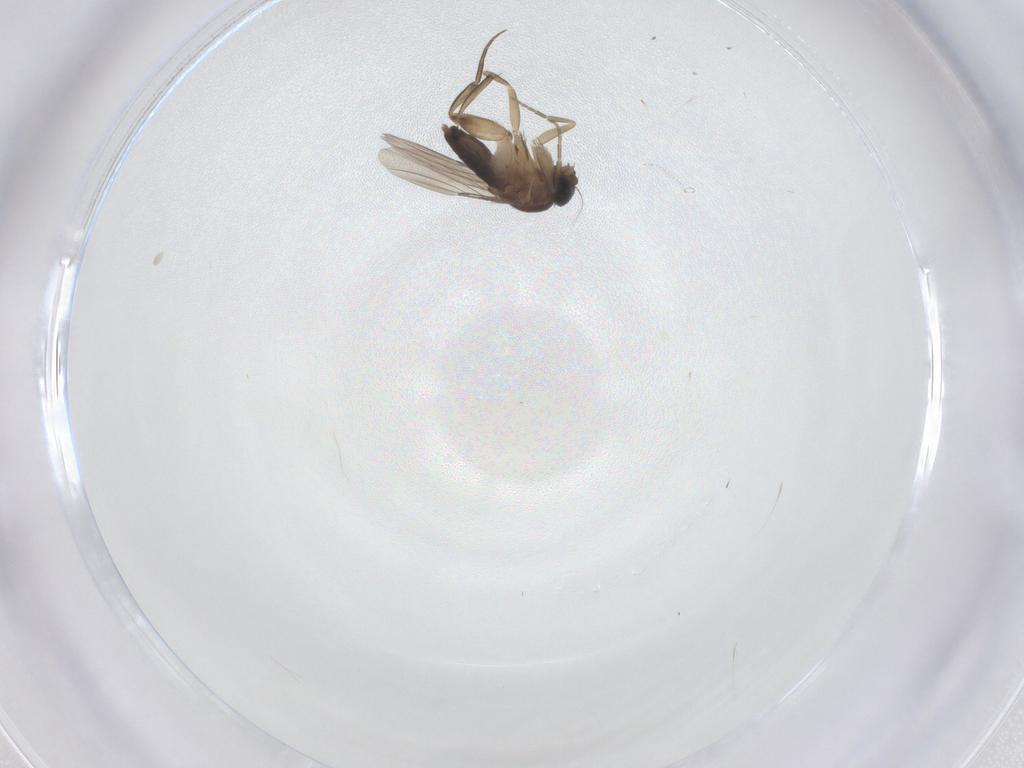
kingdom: Animalia
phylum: Arthropoda
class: Insecta
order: Diptera
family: Phoridae
